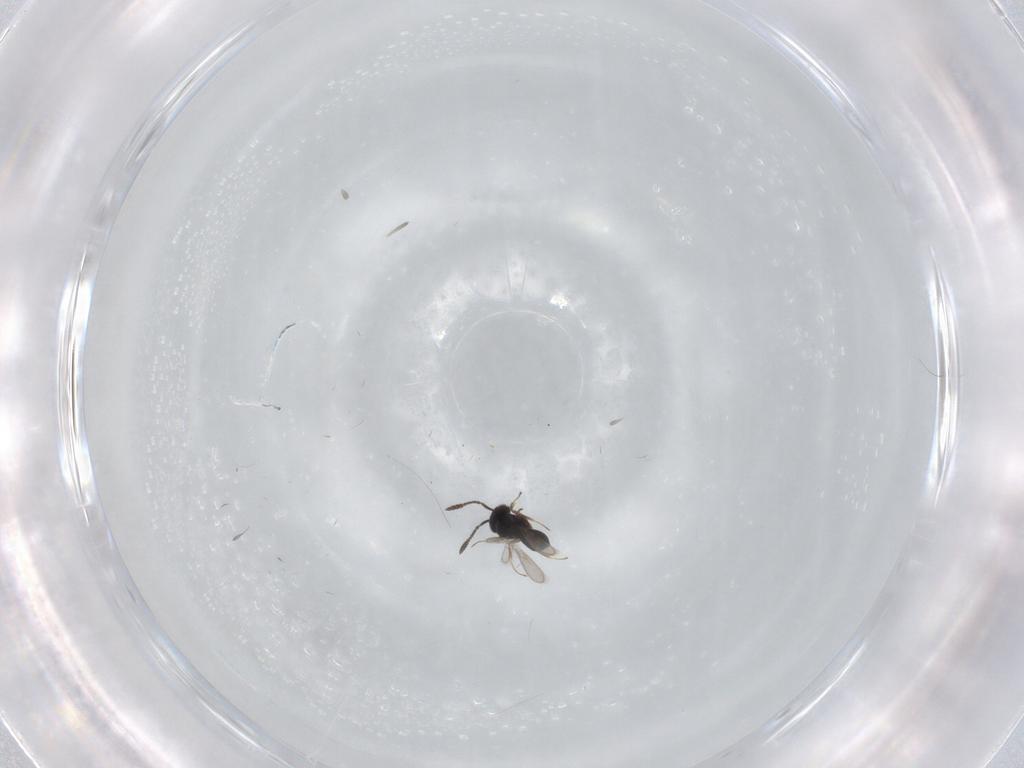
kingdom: Animalia
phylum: Arthropoda
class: Insecta
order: Hymenoptera
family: Scelionidae
